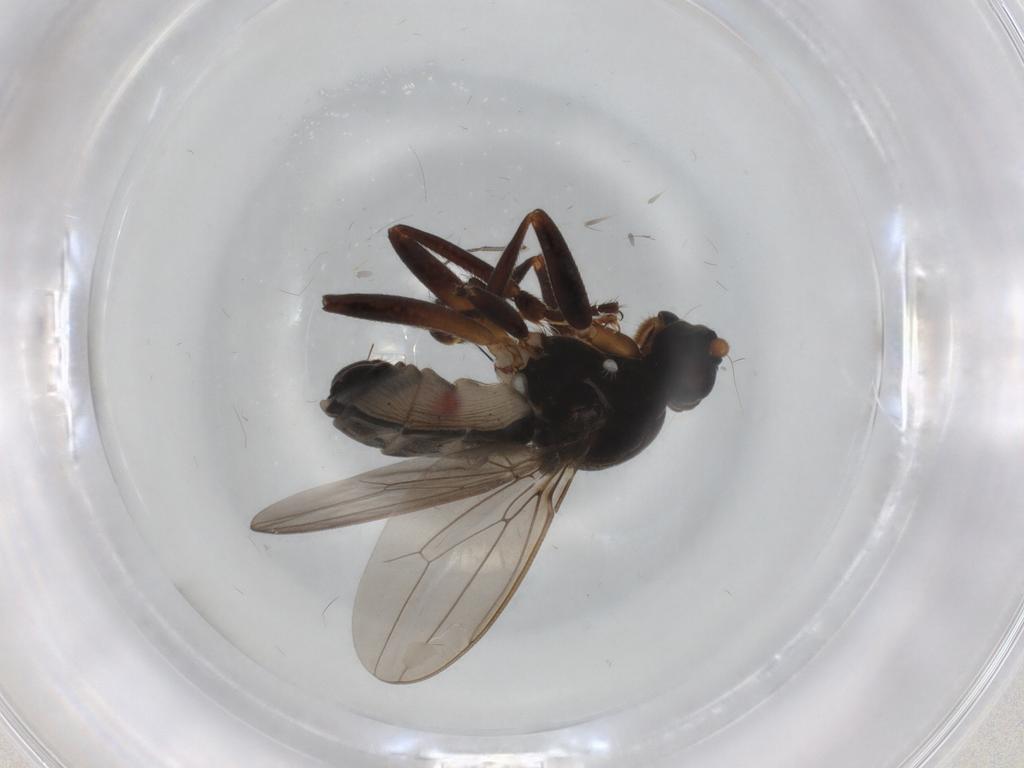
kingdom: Animalia
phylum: Arthropoda
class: Insecta
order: Diptera
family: Sphaeroceridae
